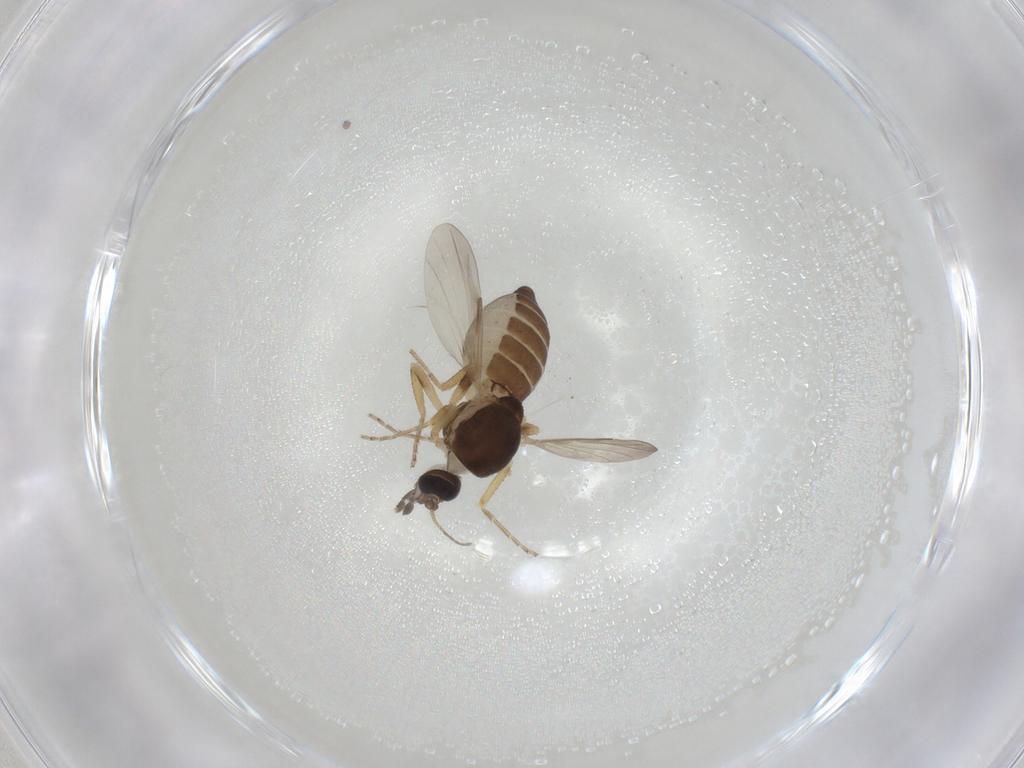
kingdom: Animalia
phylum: Arthropoda
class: Insecta
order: Diptera
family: Ceratopogonidae
